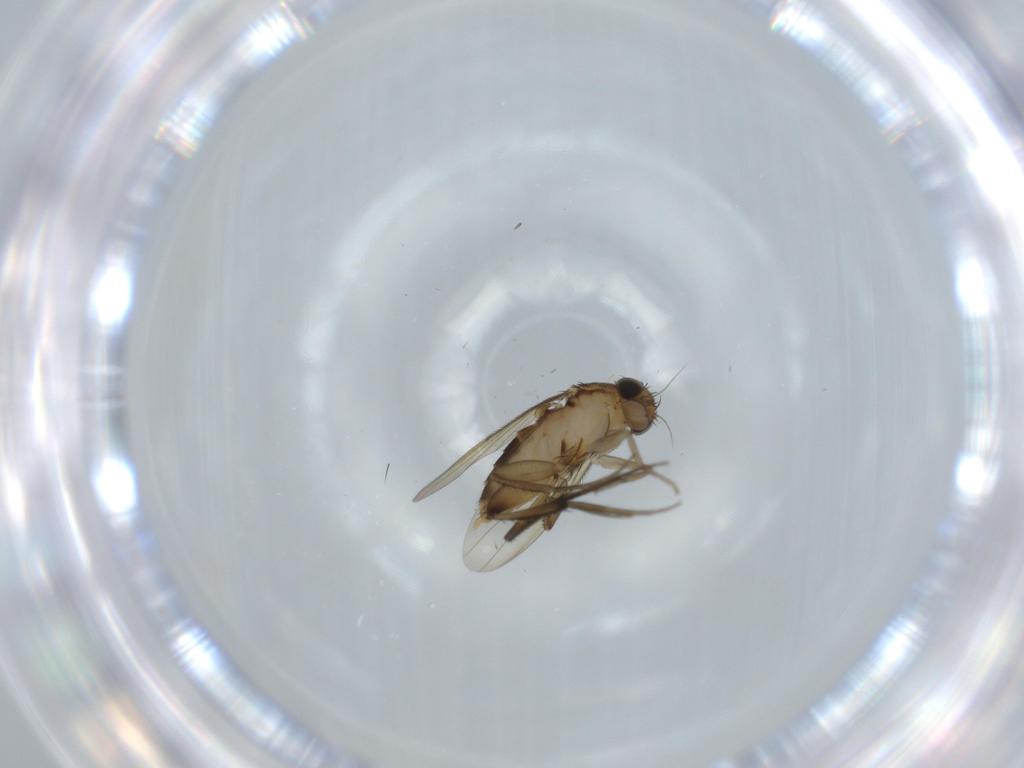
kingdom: Animalia
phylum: Arthropoda
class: Insecta
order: Diptera
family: Phoridae
